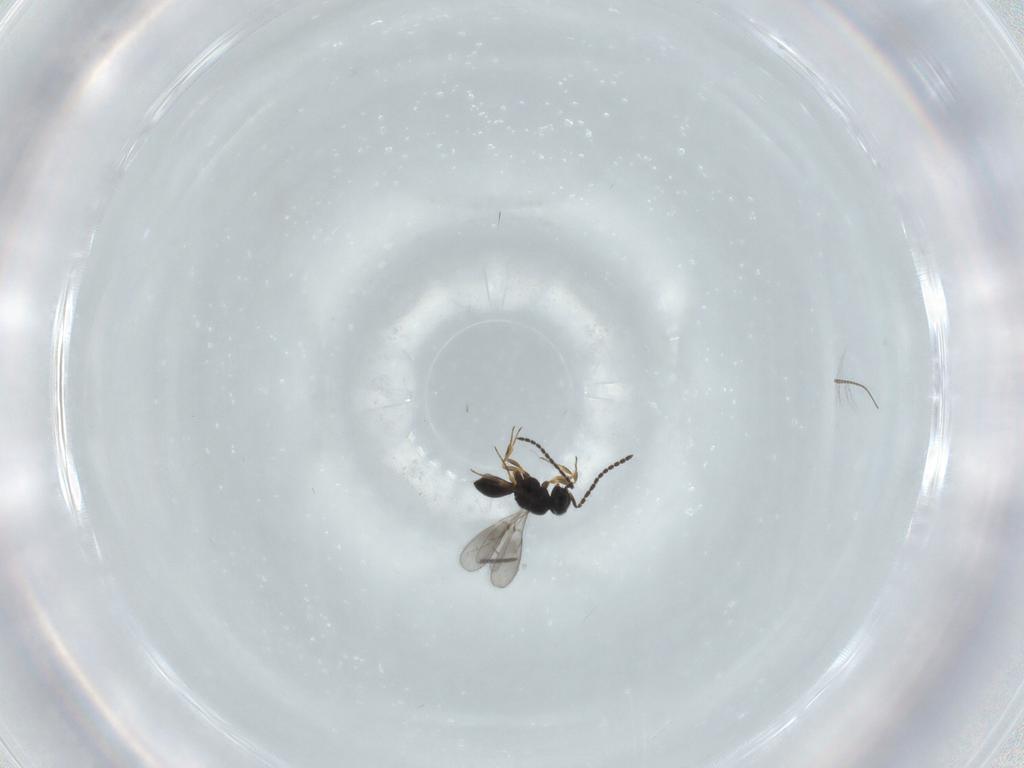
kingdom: Animalia
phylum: Arthropoda
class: Insecta
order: Hymenoptera
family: Scelionidae
